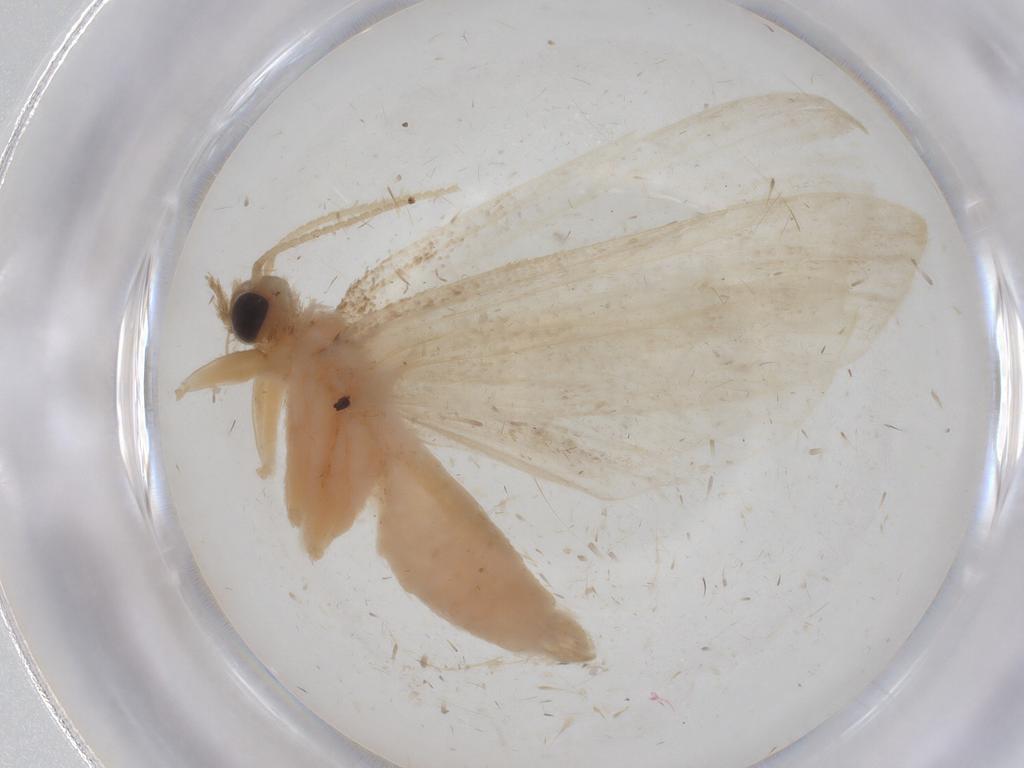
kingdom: Animalia
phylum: Arthropoda
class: Insecta
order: Lepidoptera
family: Crambidae
